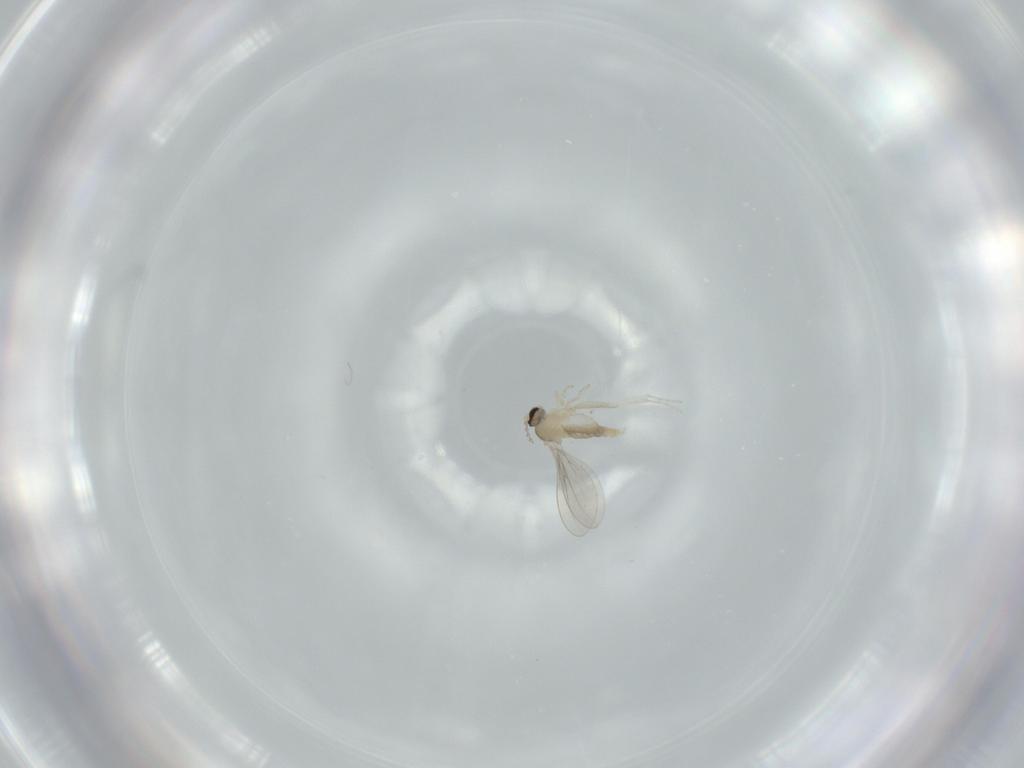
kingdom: Animalia
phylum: Arthropoda
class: Insecta
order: Diptera
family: Cecidomyiidae
